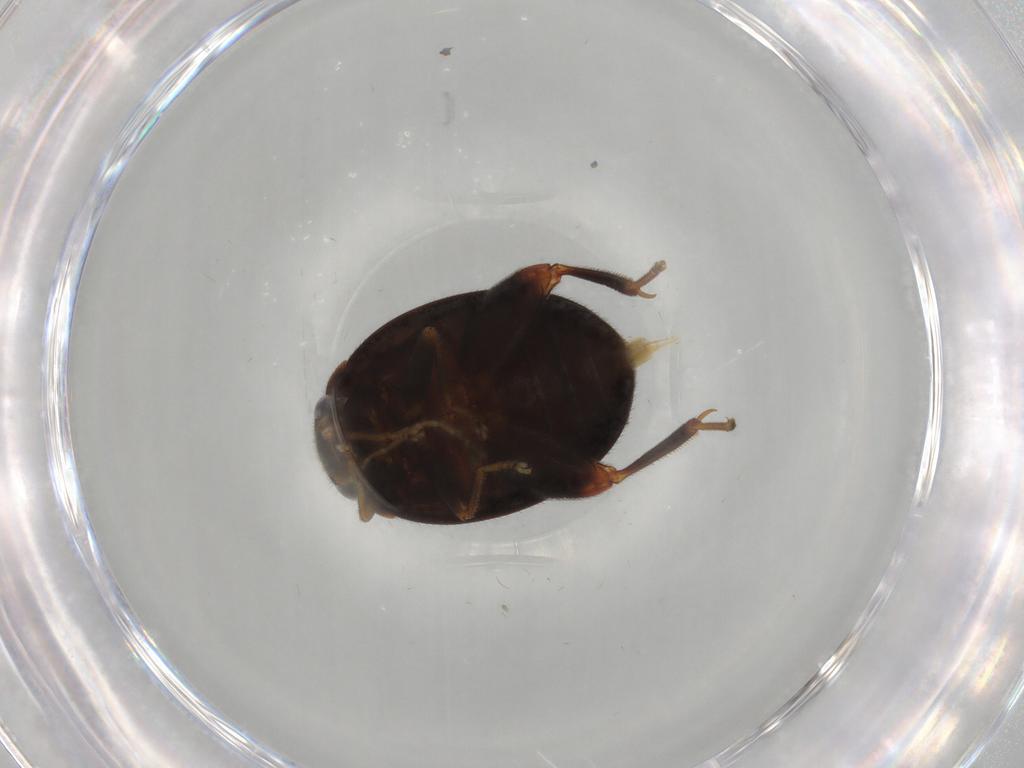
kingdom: Animalia
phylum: Arthropoda
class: Insecta
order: Coleoptera
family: Scirtidae
